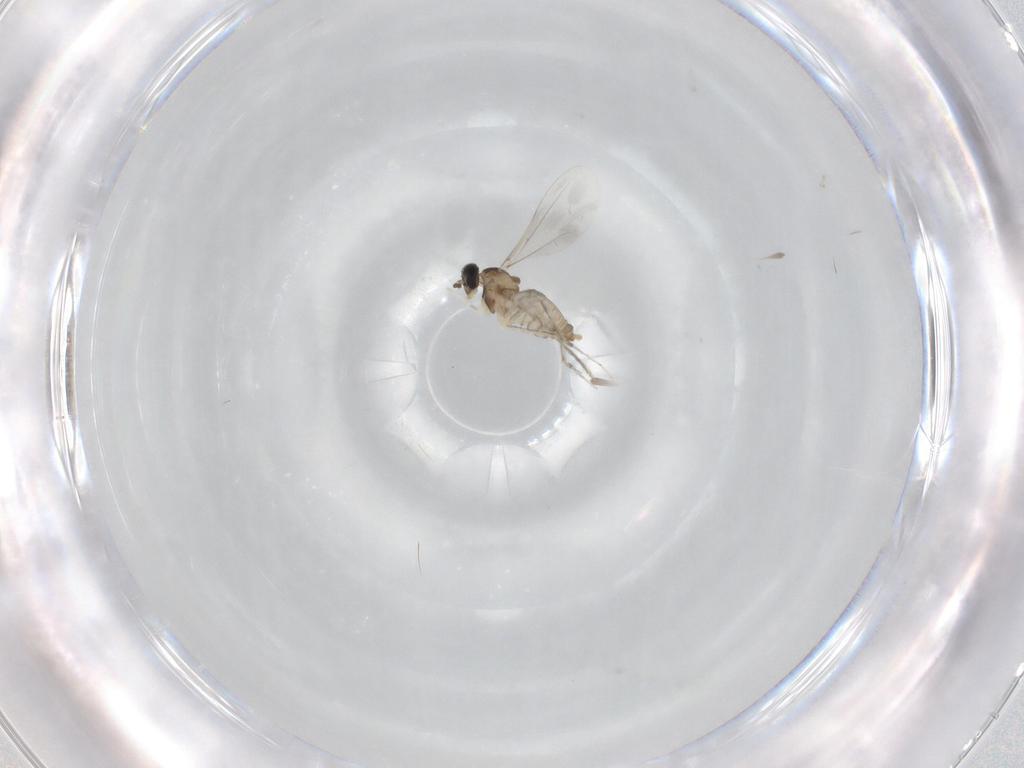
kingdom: Animalia
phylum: Arthropoda
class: Insecta
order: Diptera
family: Cecidomyiidae
